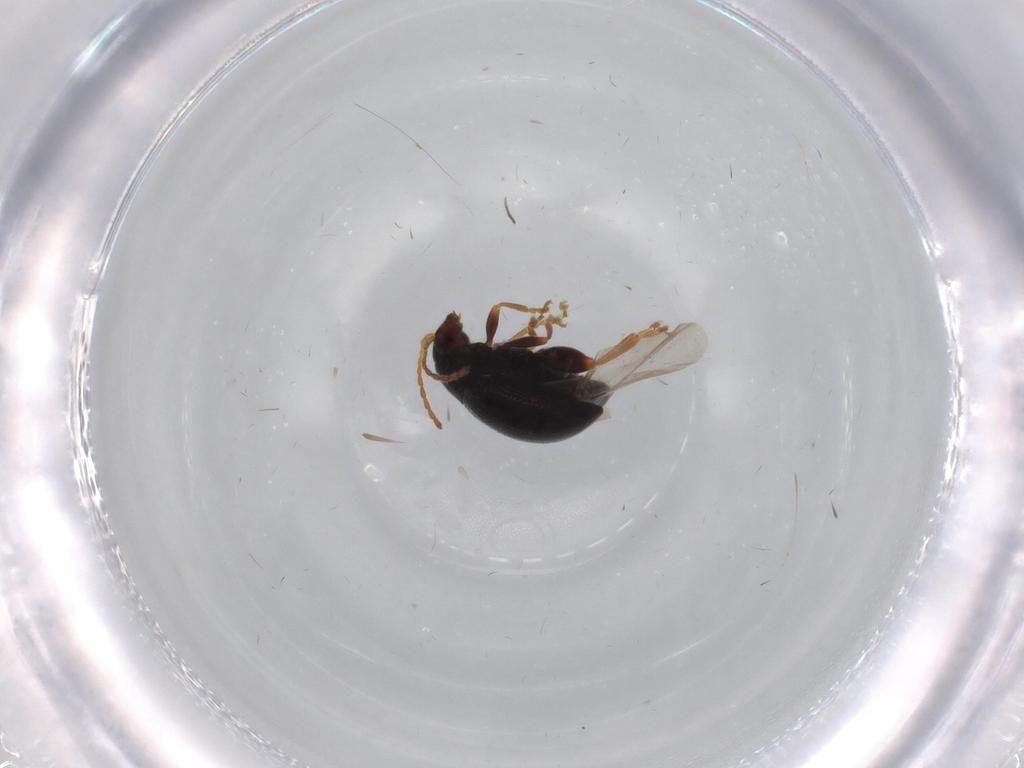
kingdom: Animalia
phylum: Arthropoda
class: Insecta
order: Coleoptera
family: Chrysomelidae
